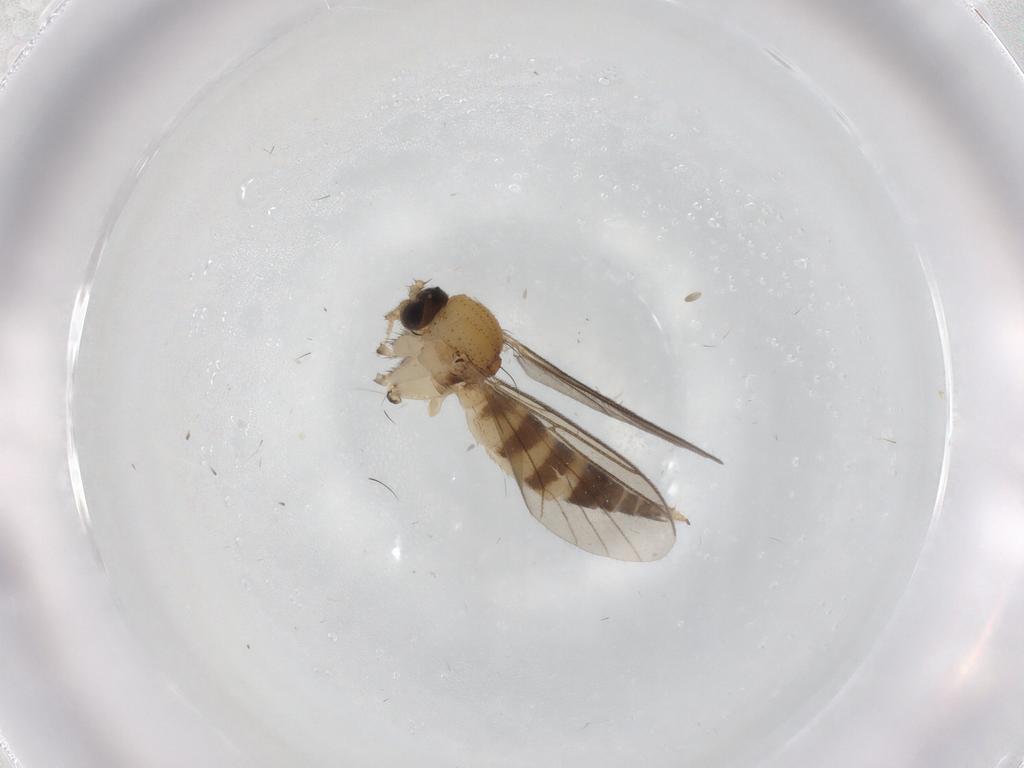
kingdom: Animalia
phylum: Arthropoda
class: Insecta
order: Diptera
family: Ceratopogonidae
